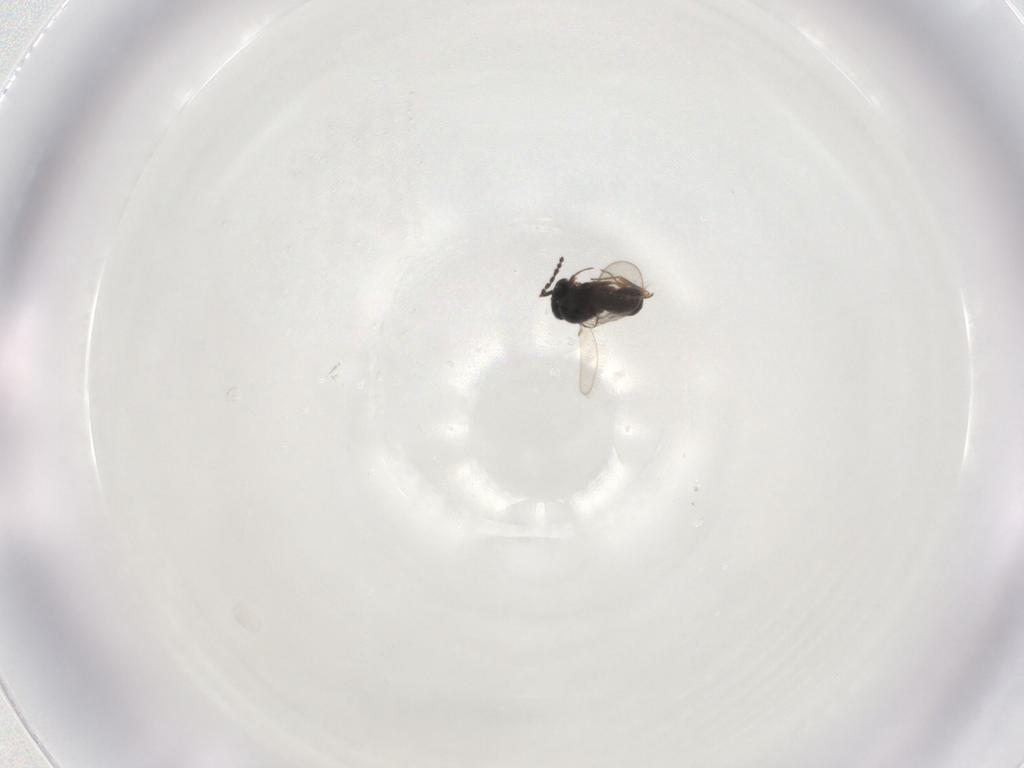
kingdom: Animalia
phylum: Arthropoda
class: Insecta
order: Hymenoptera
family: Scelionidae
